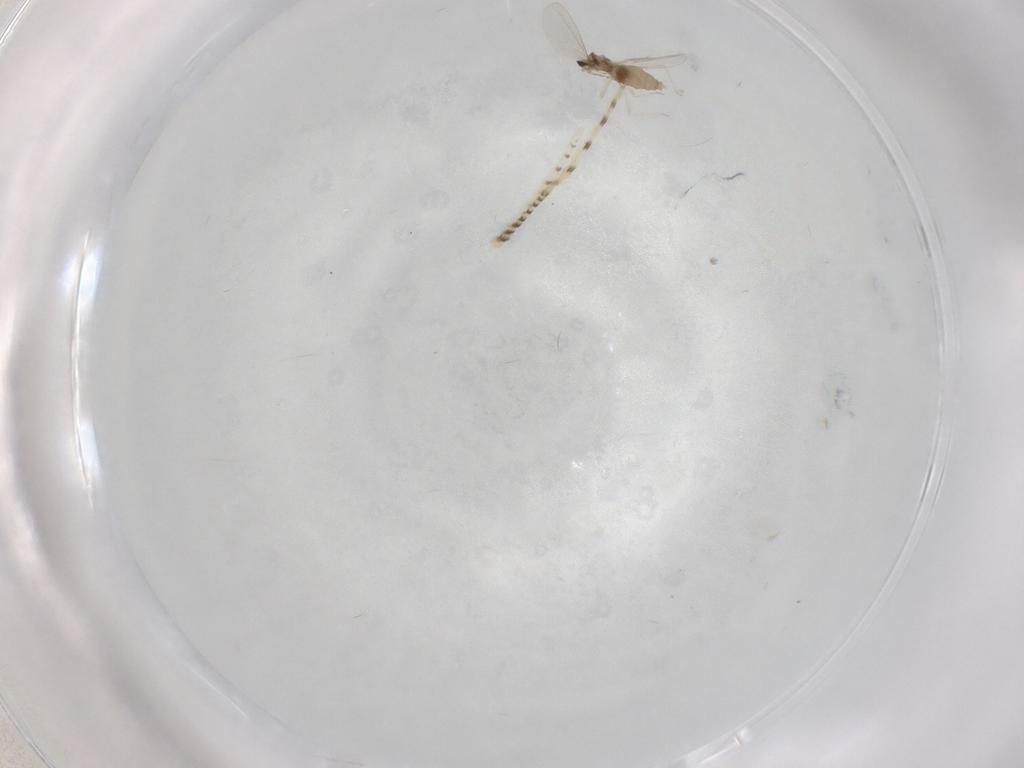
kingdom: Animalia
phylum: Arthropoda
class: Insecta
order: Diptera
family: Chaoboridae
